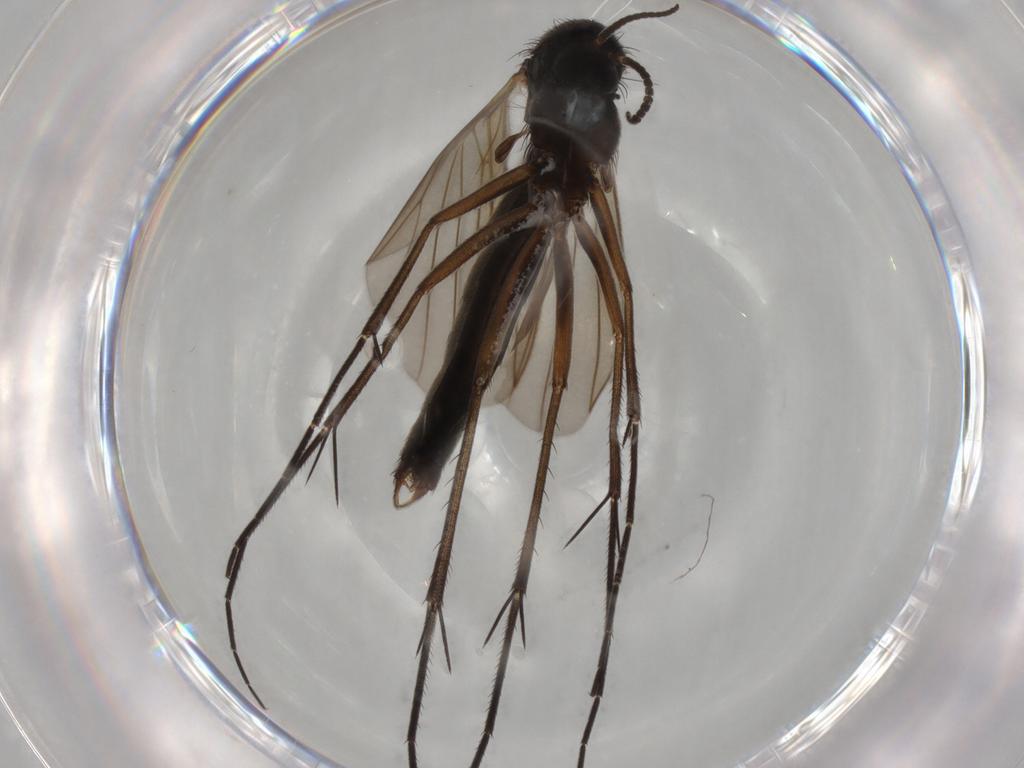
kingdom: Animalia
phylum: Arthropoda
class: Insecta
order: Diptera
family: Mycetophilidae
